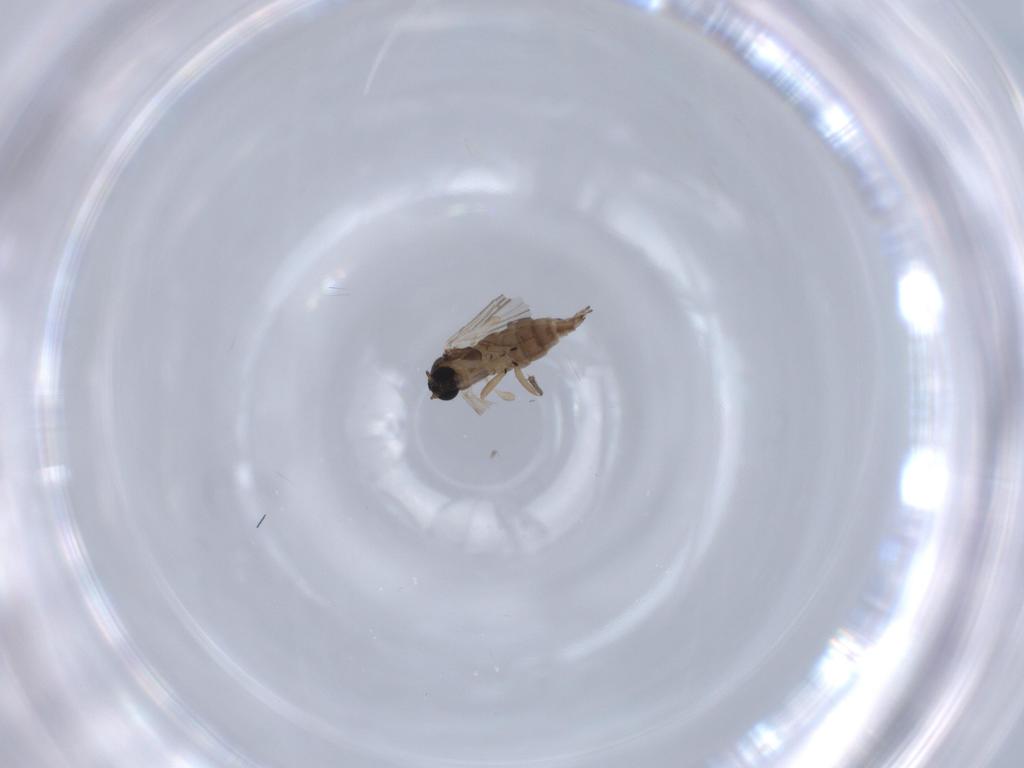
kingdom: Animalia
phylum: Arthropoda
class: Insecta
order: Diptera
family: Sciaridae
